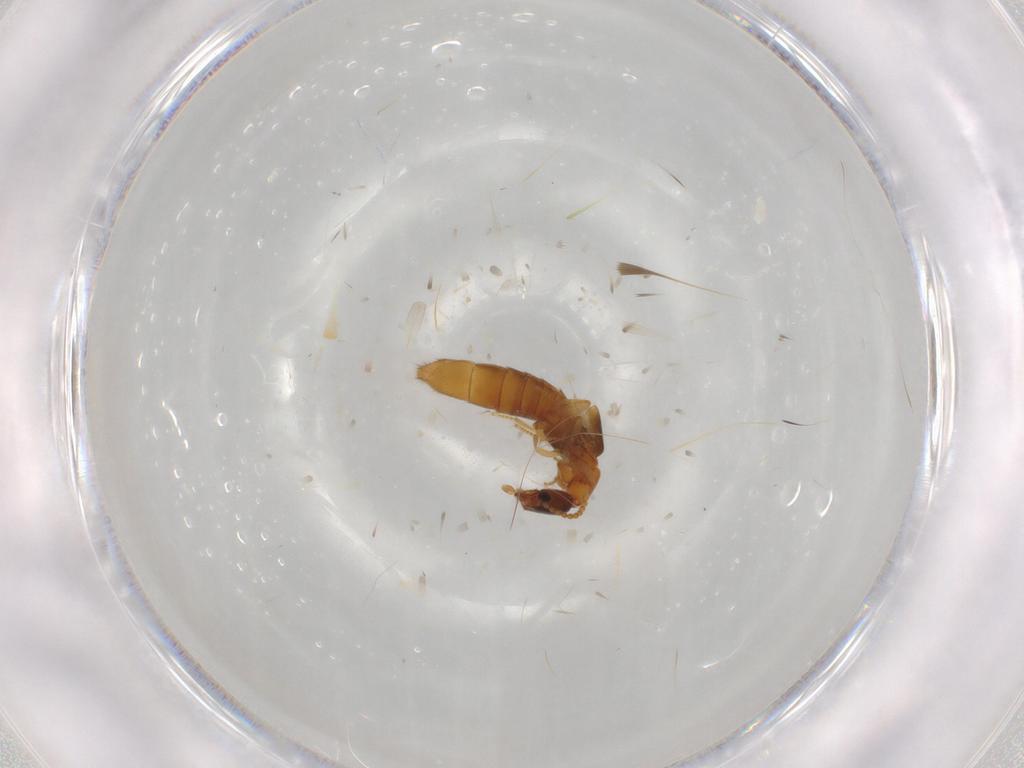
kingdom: Animalia
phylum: Arthropoda
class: Insecta
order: Coleoptera
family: Staphylinidae
